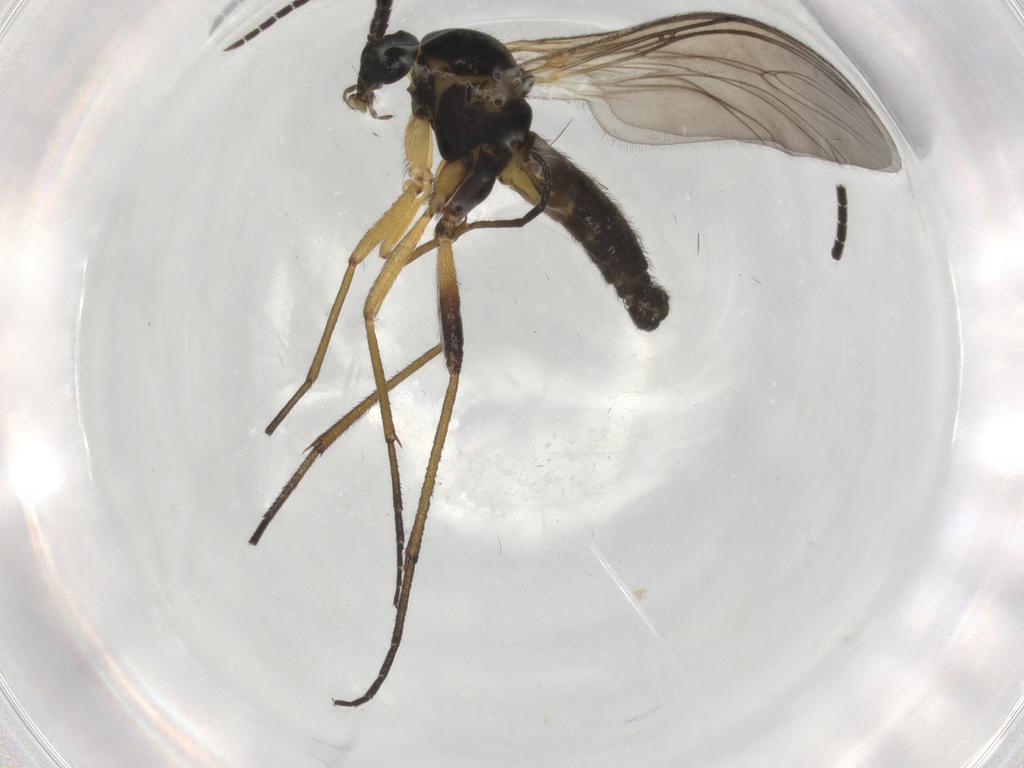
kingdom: Animalia
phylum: Arthropoda
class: Insecta
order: Diptera
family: Sciaridae
